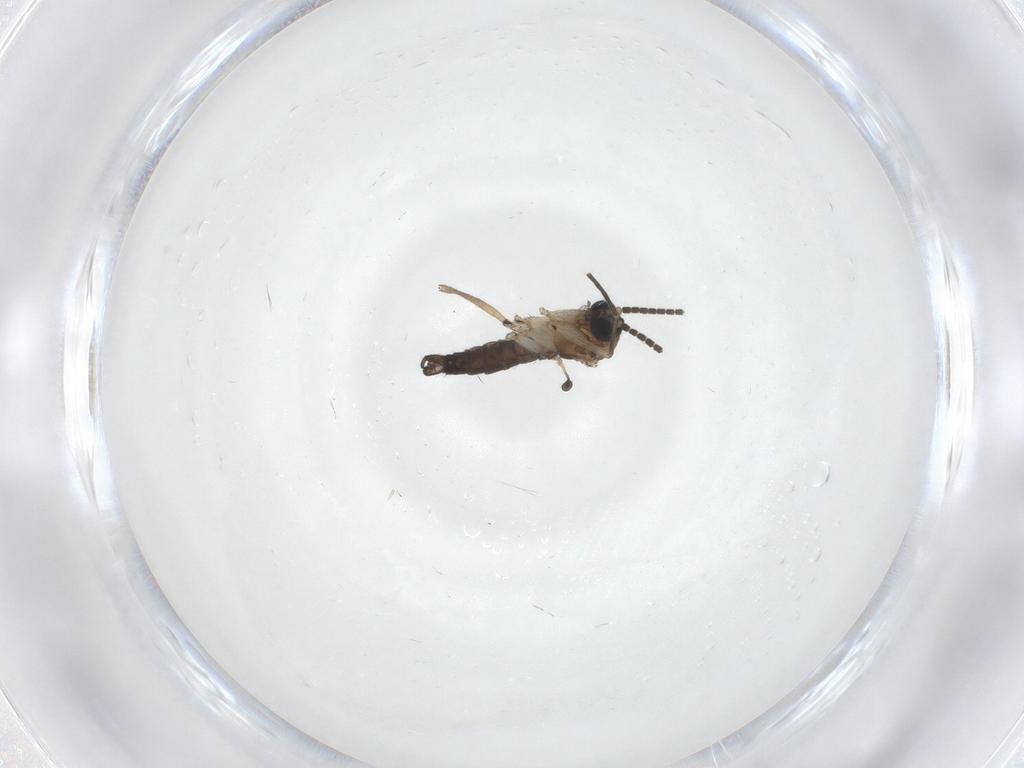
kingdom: Animalia
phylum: Arthropoda
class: Insecta
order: Diptera
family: Sciaridae
